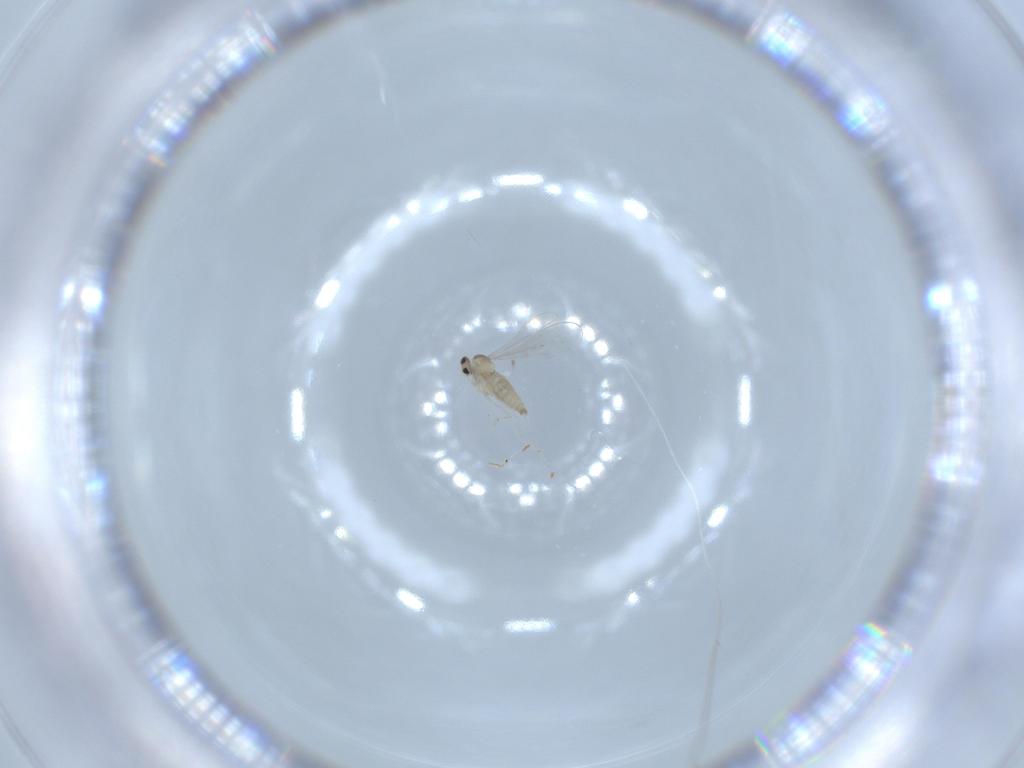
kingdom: Animalia
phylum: Arthropoda
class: Insecta
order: Diptera
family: Cecidomyiidae
